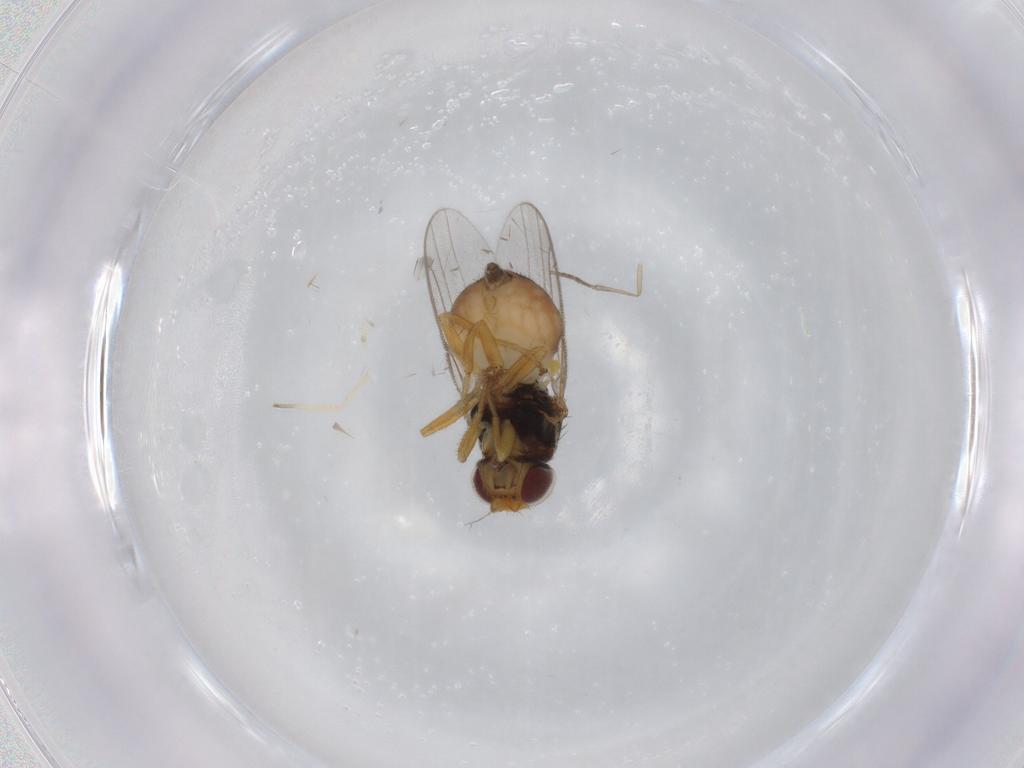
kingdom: Animalia
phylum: Arthropoda
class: Insecta
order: Diptera
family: Chloropidae
